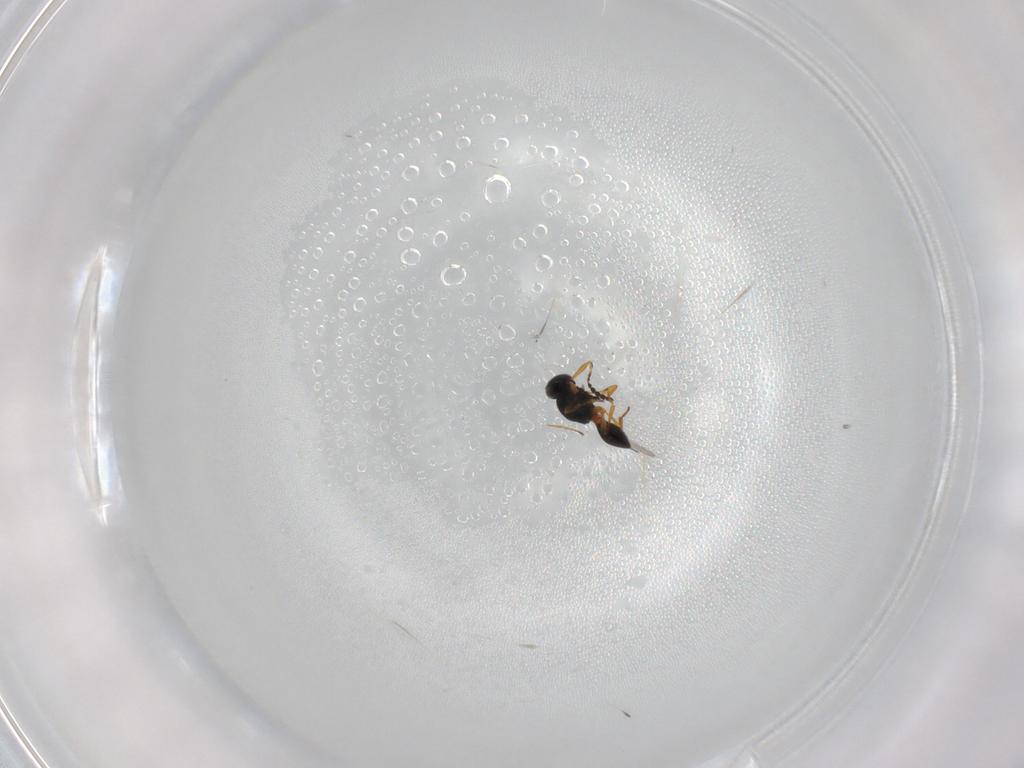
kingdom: Animalia
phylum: Arthropoda
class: Insecta
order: Hymenoptera
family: Platygastridae
